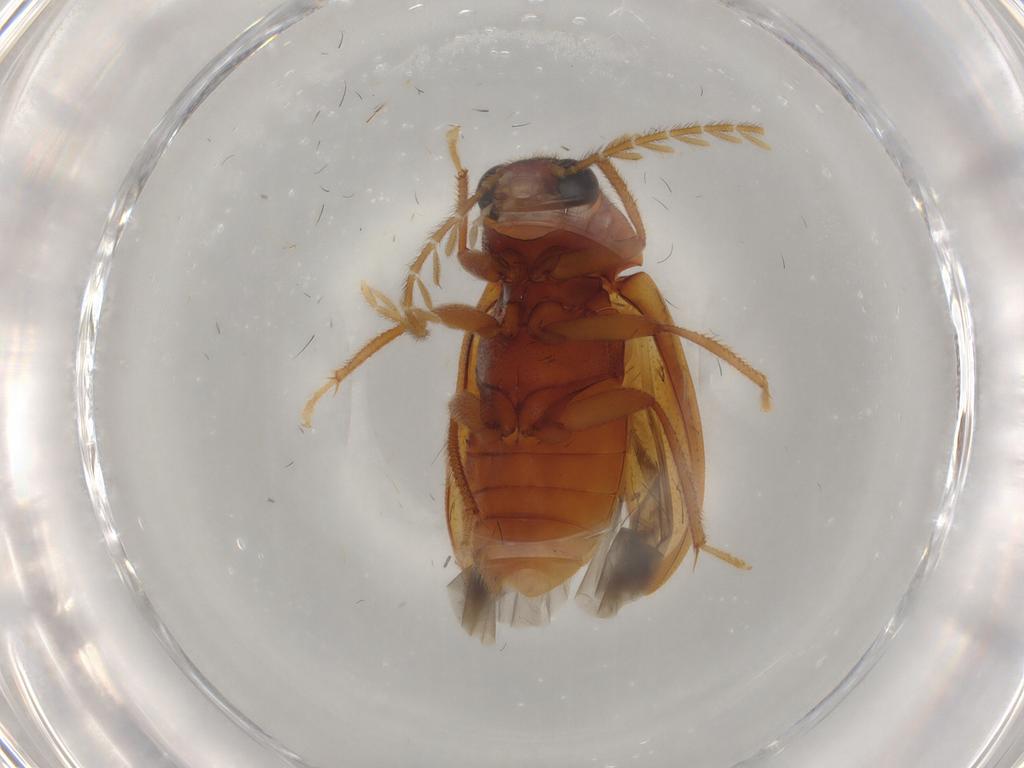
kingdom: Animalia
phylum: Arthropoda
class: Insecta
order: Coleoptera
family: Ptilodactylidae
